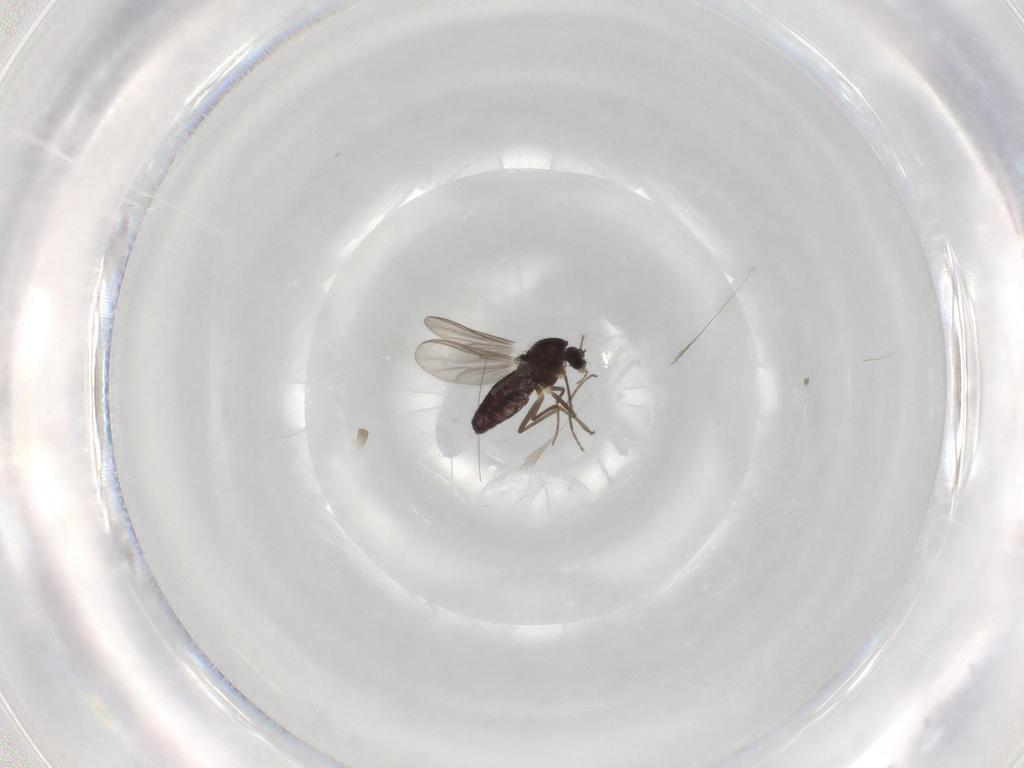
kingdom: Animalia
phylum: Arthropoda
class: Insecta
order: Diptera
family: Chironomidae
